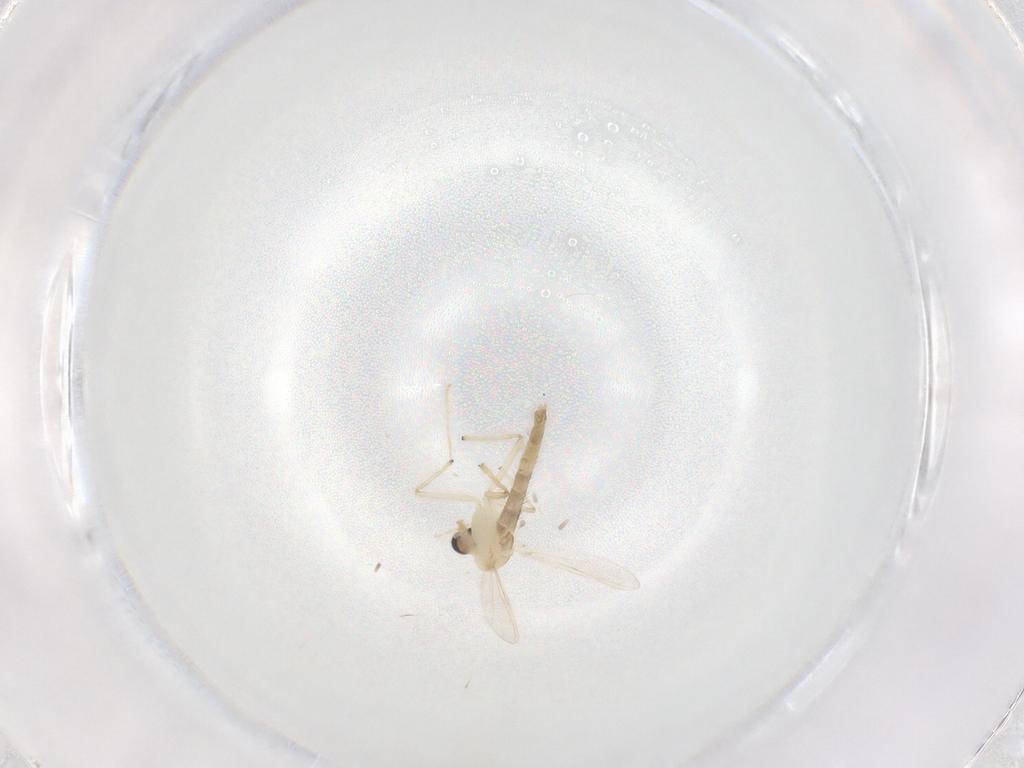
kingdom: Animalia
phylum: Arthropoda
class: Insecta
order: Diptera
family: Chironomidae
